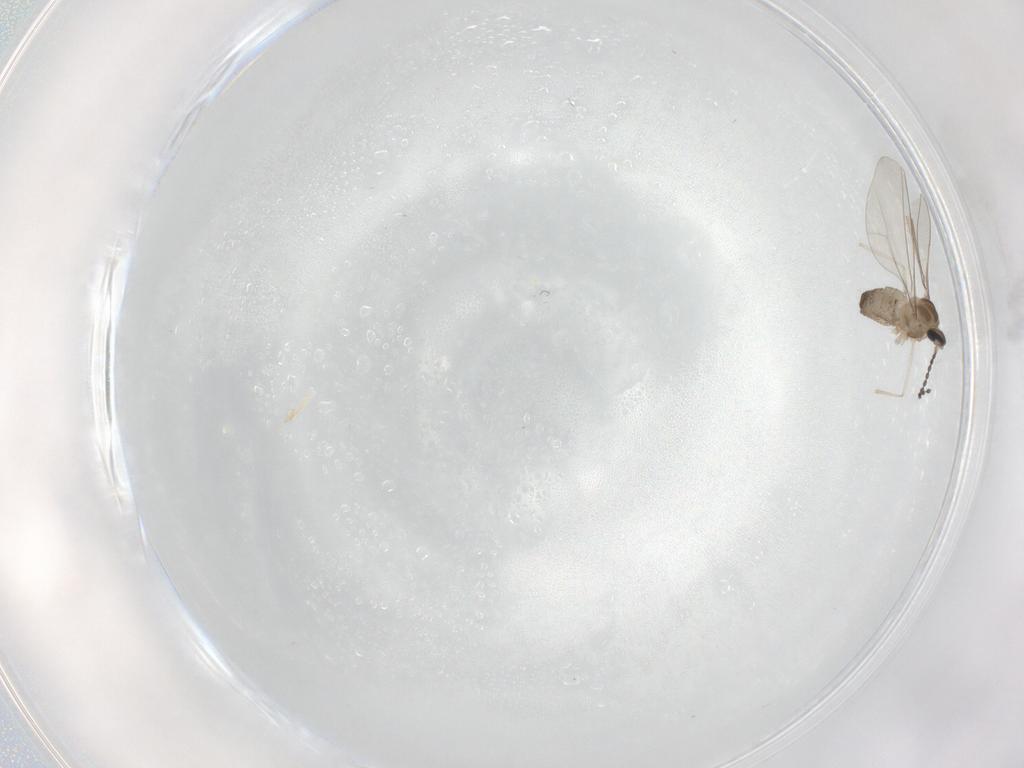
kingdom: Animalia
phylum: Arthropoda
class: Insecta
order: Diptera
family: Cecidomyiidae
